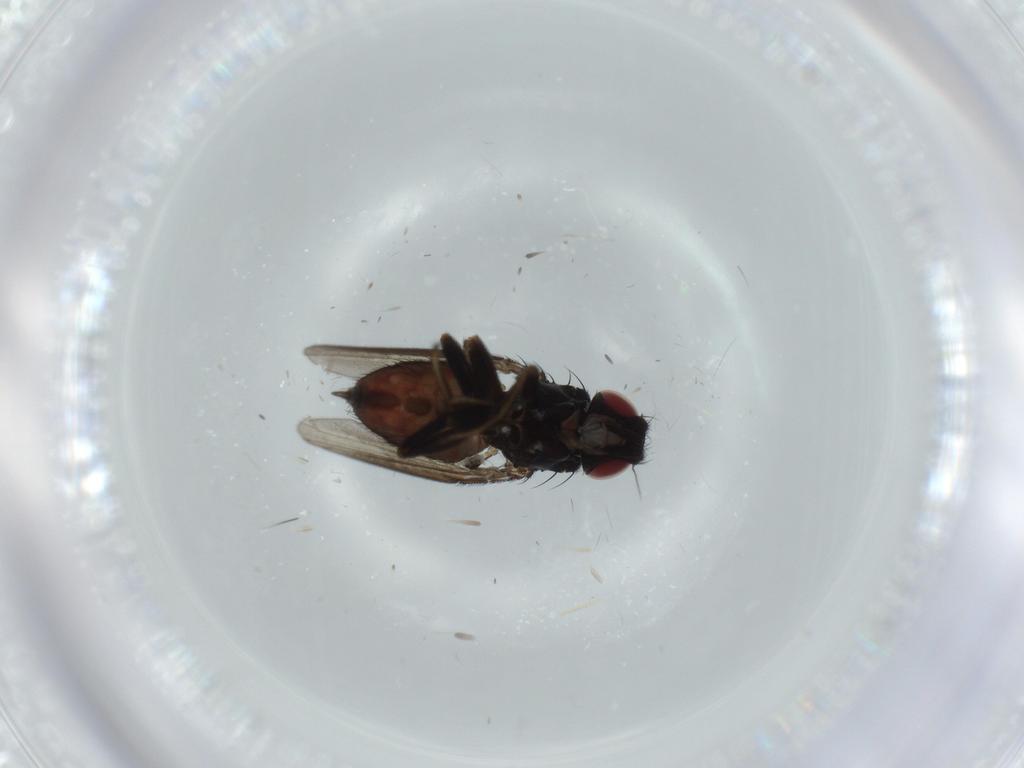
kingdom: Animalia
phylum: Arthropoda
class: Insecta
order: Diptera
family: Milichiidae
